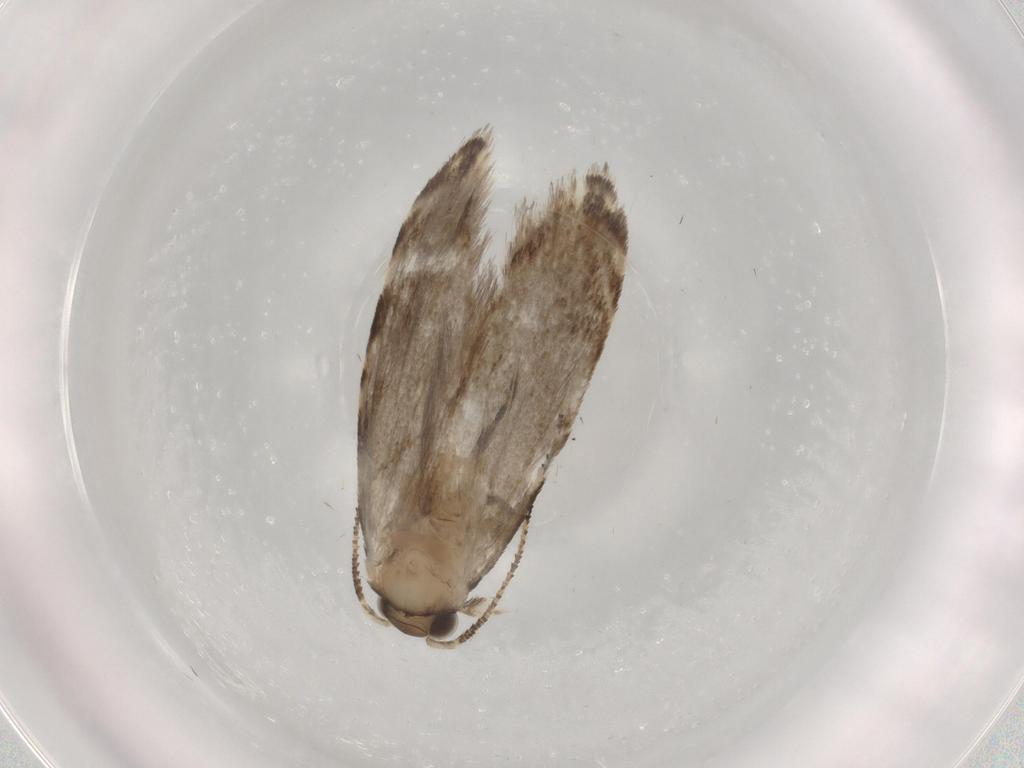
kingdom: Animalia
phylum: Arthropoda
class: Insecta
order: Lepidoptera
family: Tineidae
